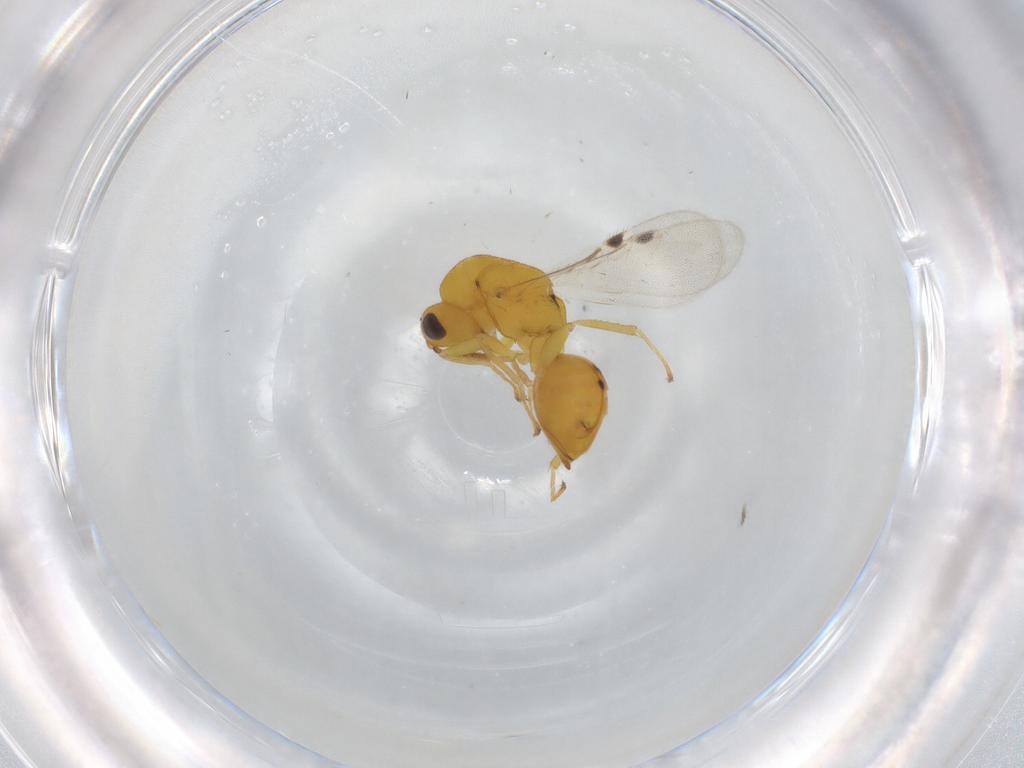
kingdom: Animalia
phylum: Arthropoda
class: Insecta
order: Hymenoptera
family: Eurytomidae
